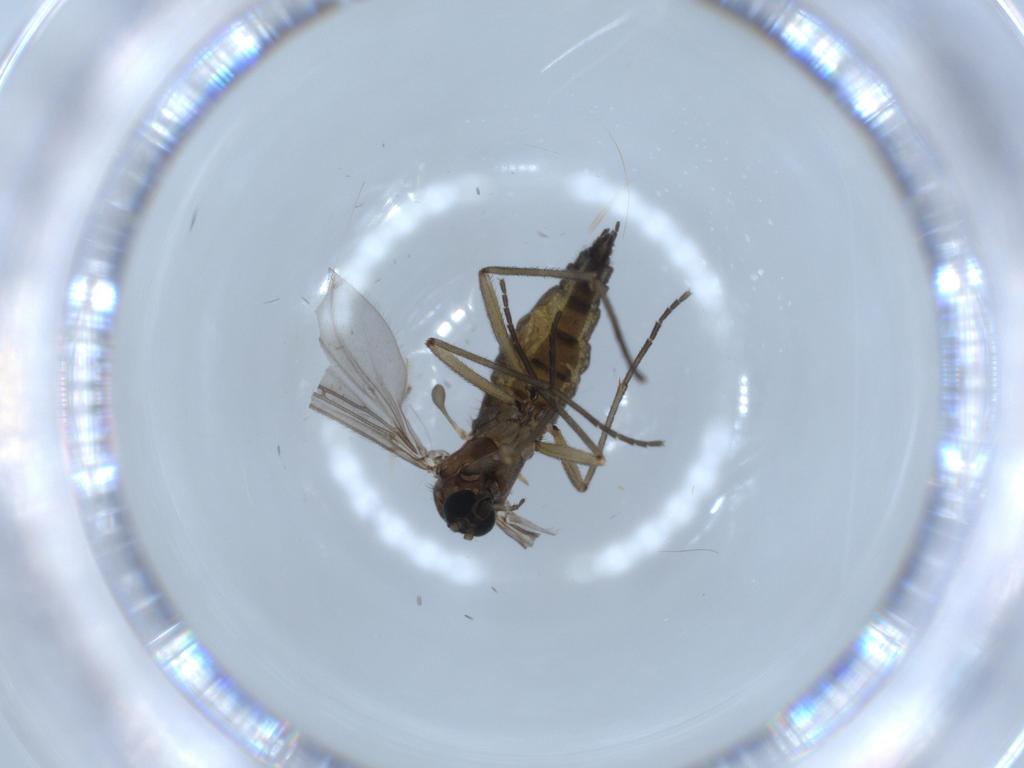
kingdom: Animalia
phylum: Arthropoda
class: Insecta
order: Diptera
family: Sciaridae
